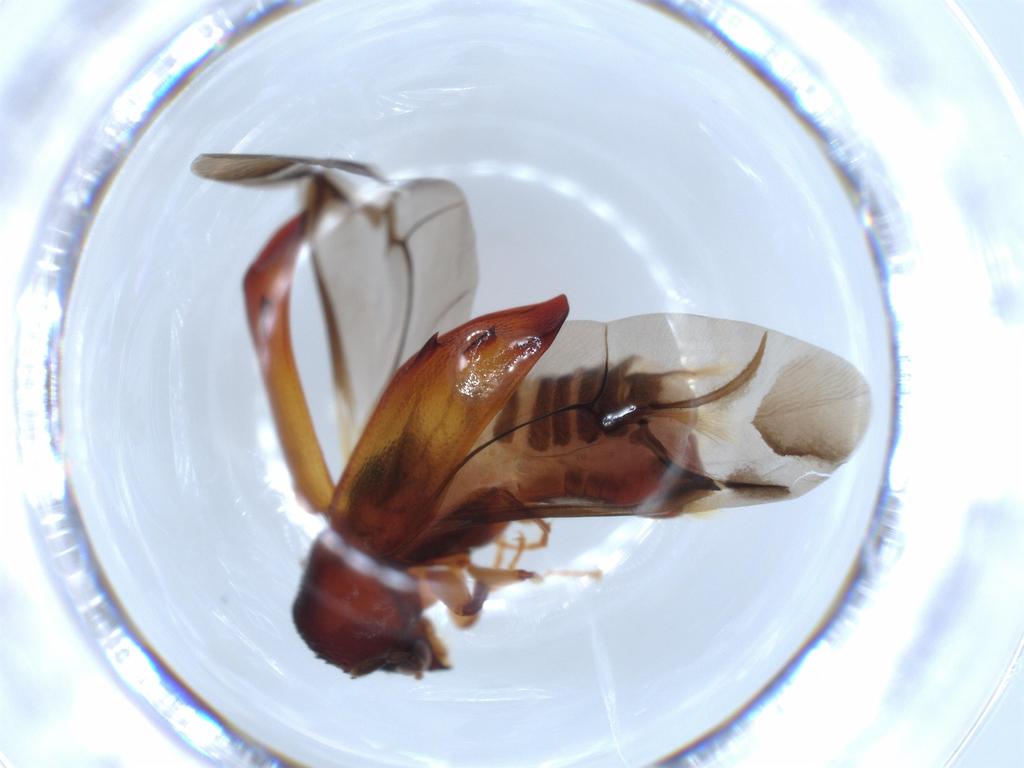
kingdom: Animalia
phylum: Arthropoda
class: Insecta
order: Coleoptera
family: Bostrichidae
